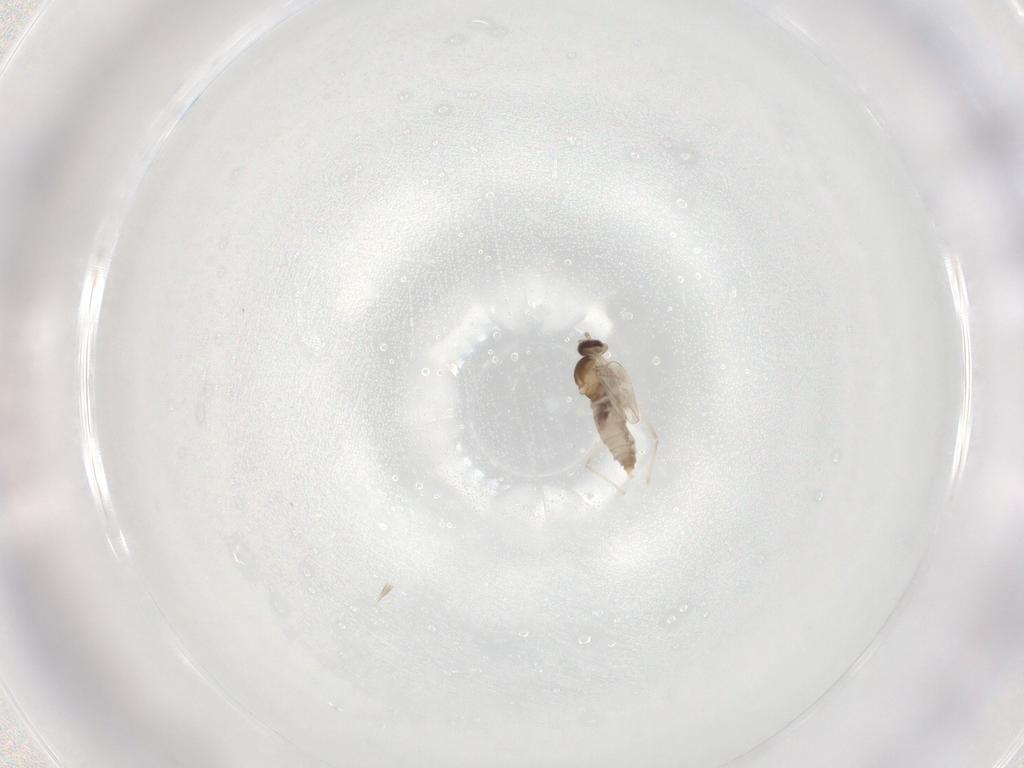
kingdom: Animalia
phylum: Arthropoda
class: Insecta
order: Diptera
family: Cecidomyiidae
